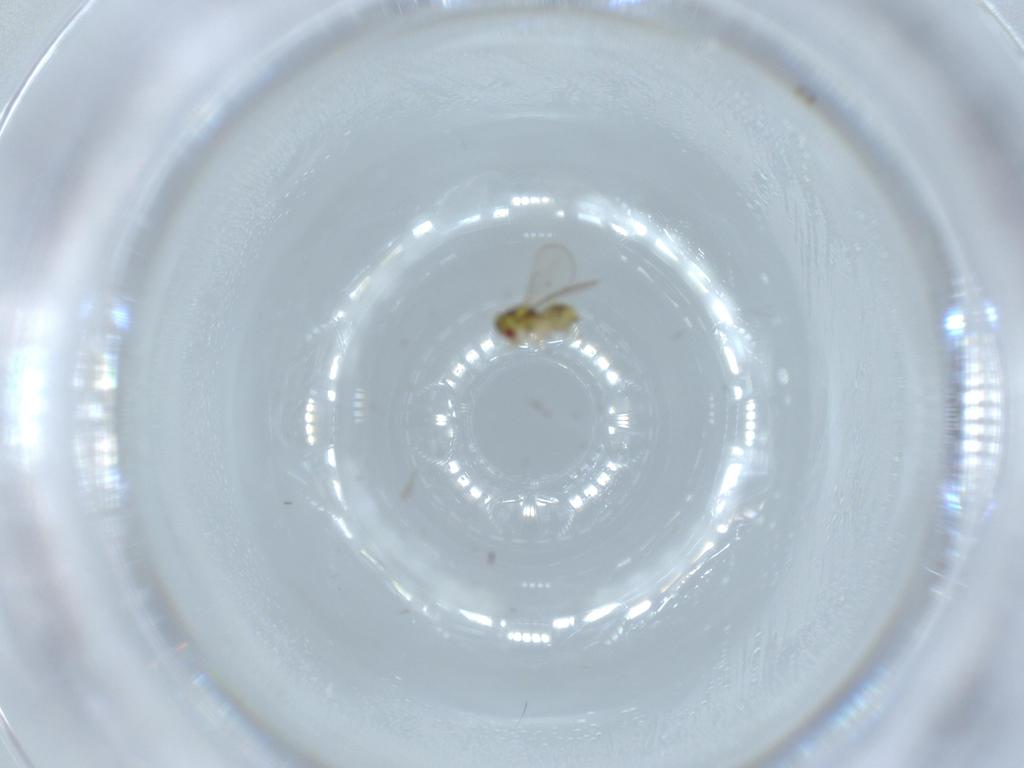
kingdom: Animalia
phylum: Arthropoda
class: Insecta
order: Hymenoptera
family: Eulophidae
